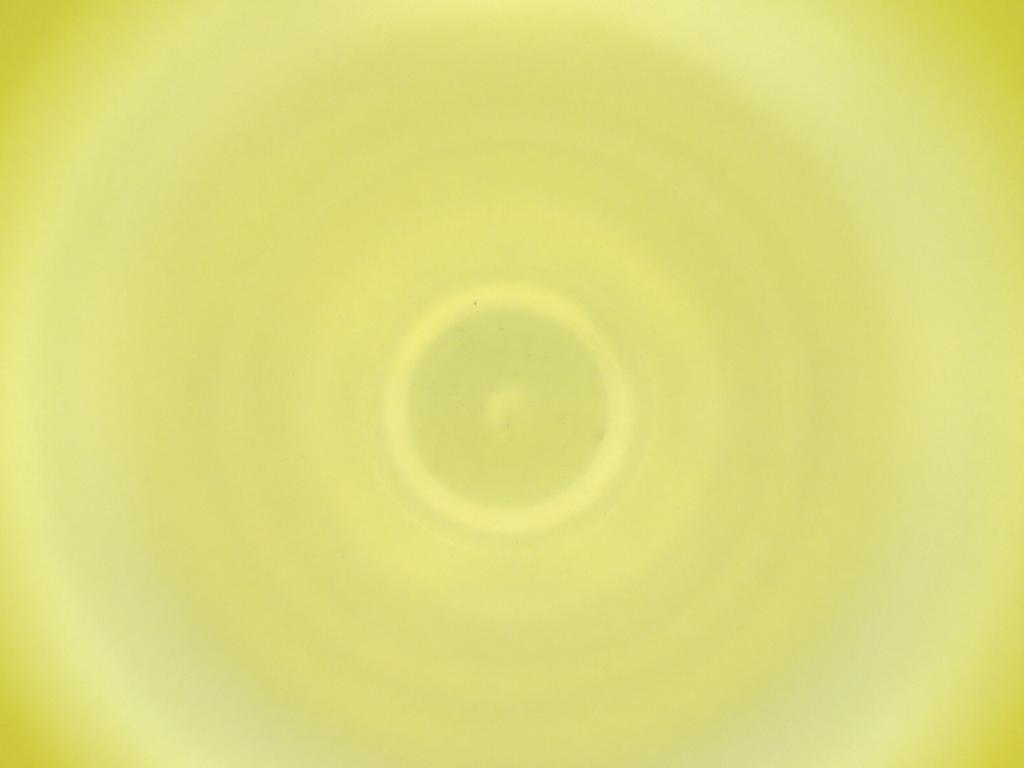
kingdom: Animalia
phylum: Arthropoda
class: Insecta
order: Diptera
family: Cecidomyiidae
